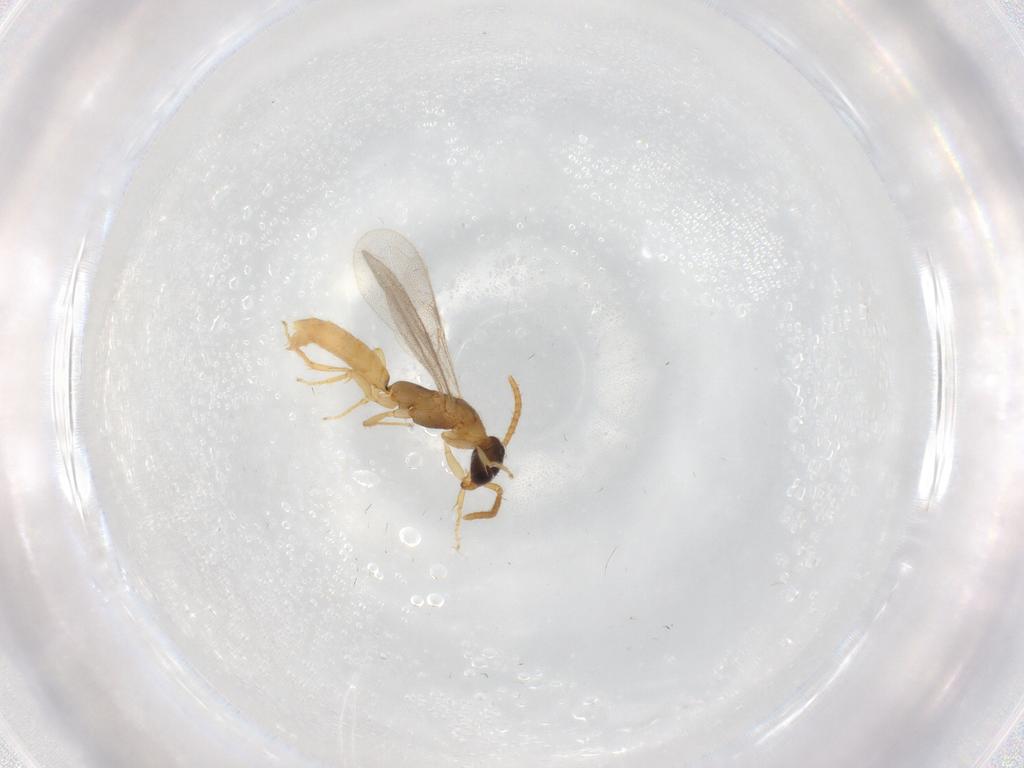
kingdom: Animalia
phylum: Arthropoda
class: Insecta
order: Hymenoptera
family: Bethylidae
